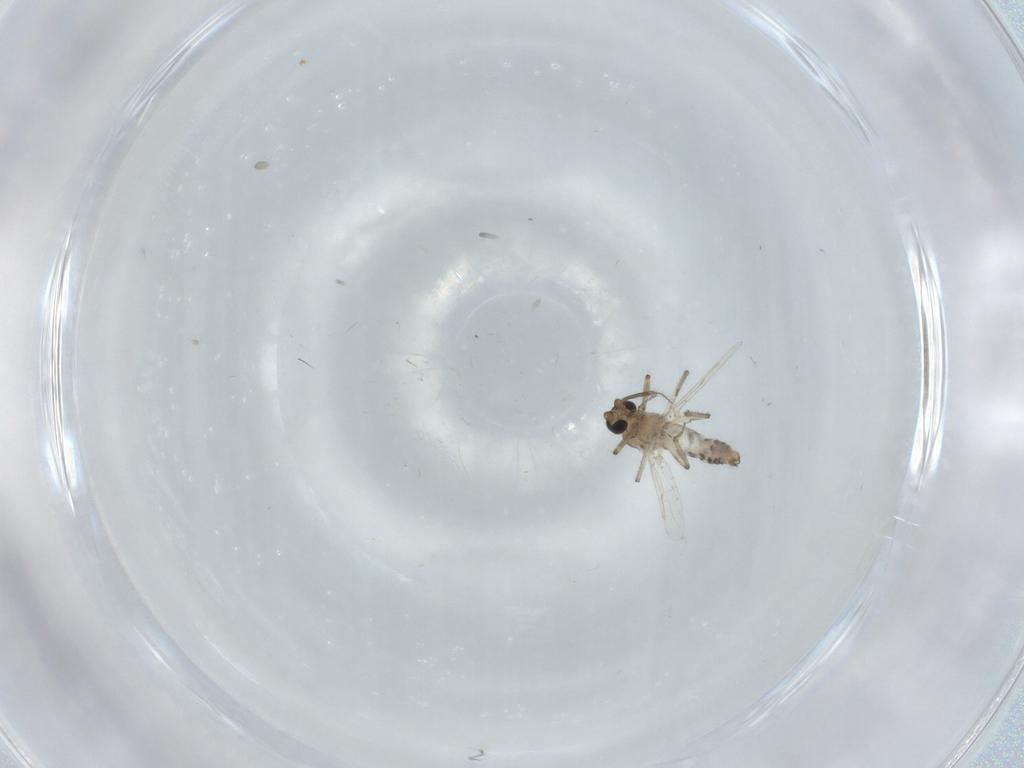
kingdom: Animalia
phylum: Arthropoda
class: Insecta
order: Diptera
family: Ceratopogonidae
